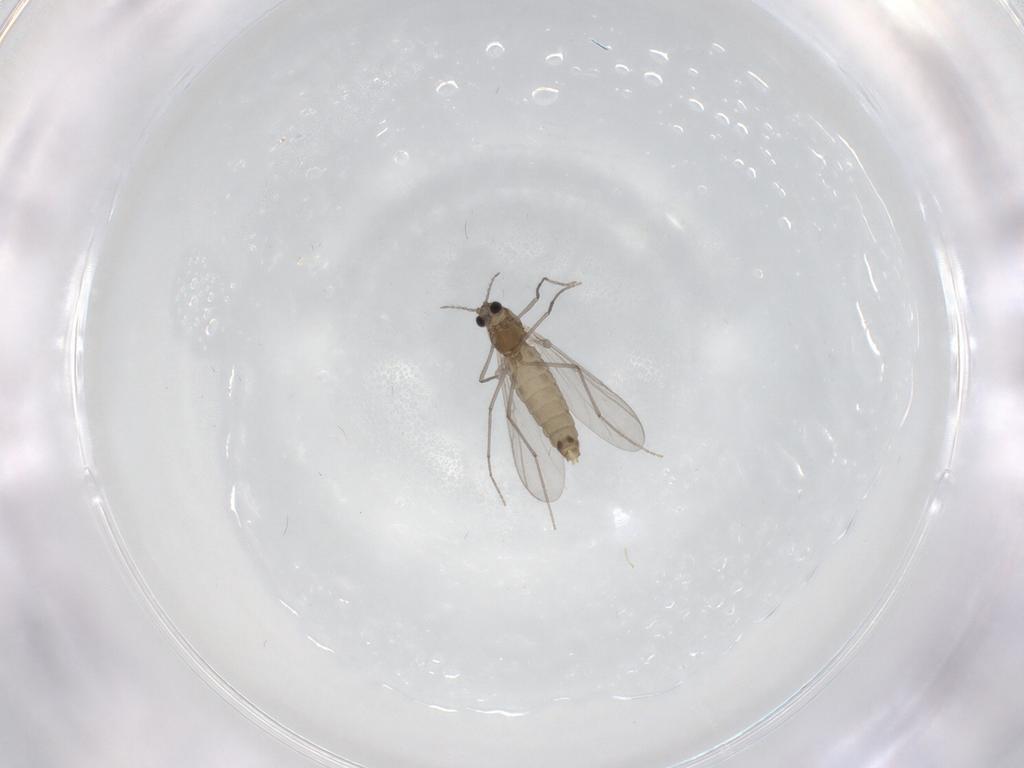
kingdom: Animalia
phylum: Arthropoda
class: Insecta
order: Diptera
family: Chironomidae
